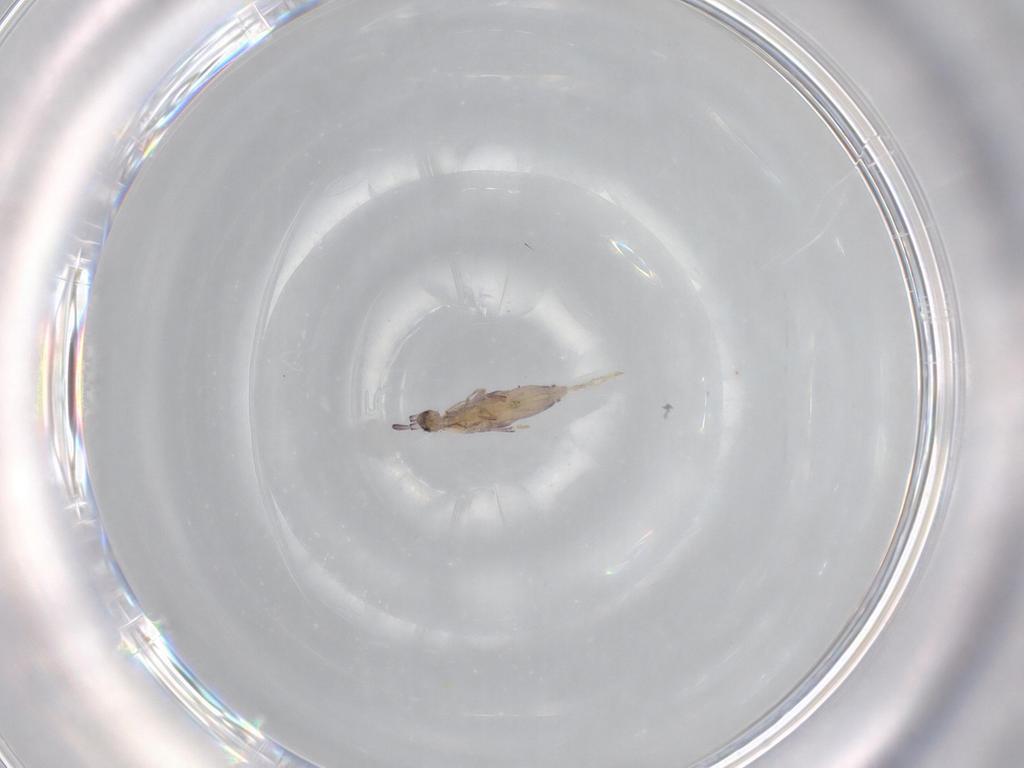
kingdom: Animalia
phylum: Arthropoda
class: Collembola
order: Poduromorpha
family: Hypogastruridae
